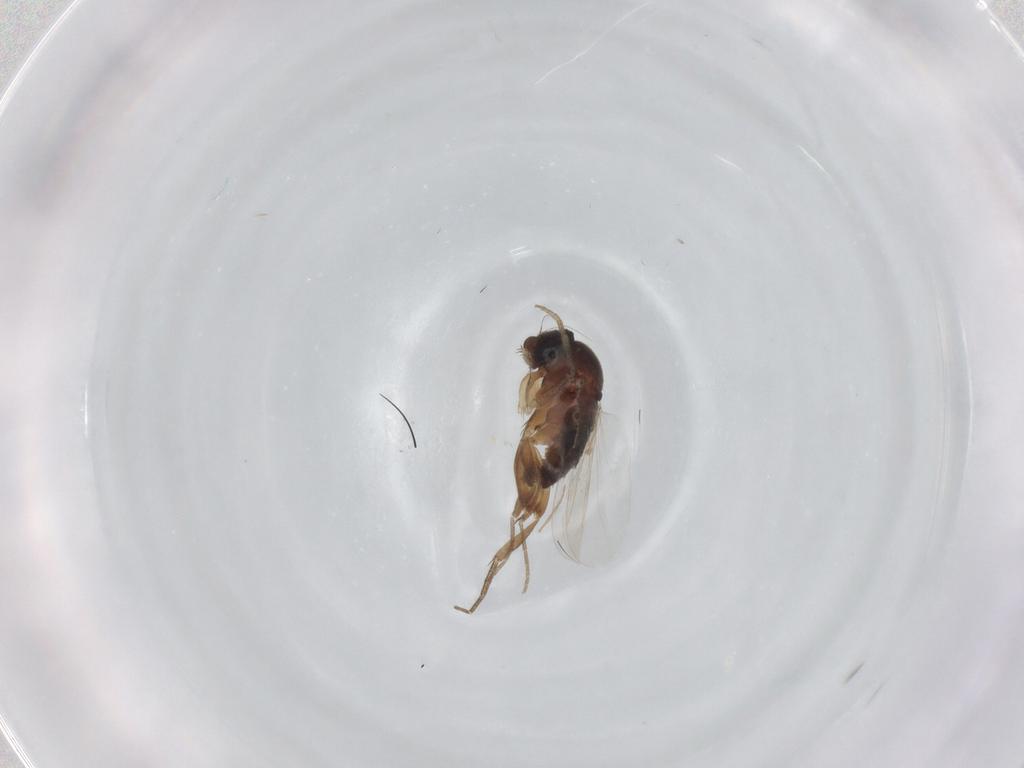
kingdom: Animalia
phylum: Arthropoda
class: Insecta
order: Diptera
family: Phoridae
